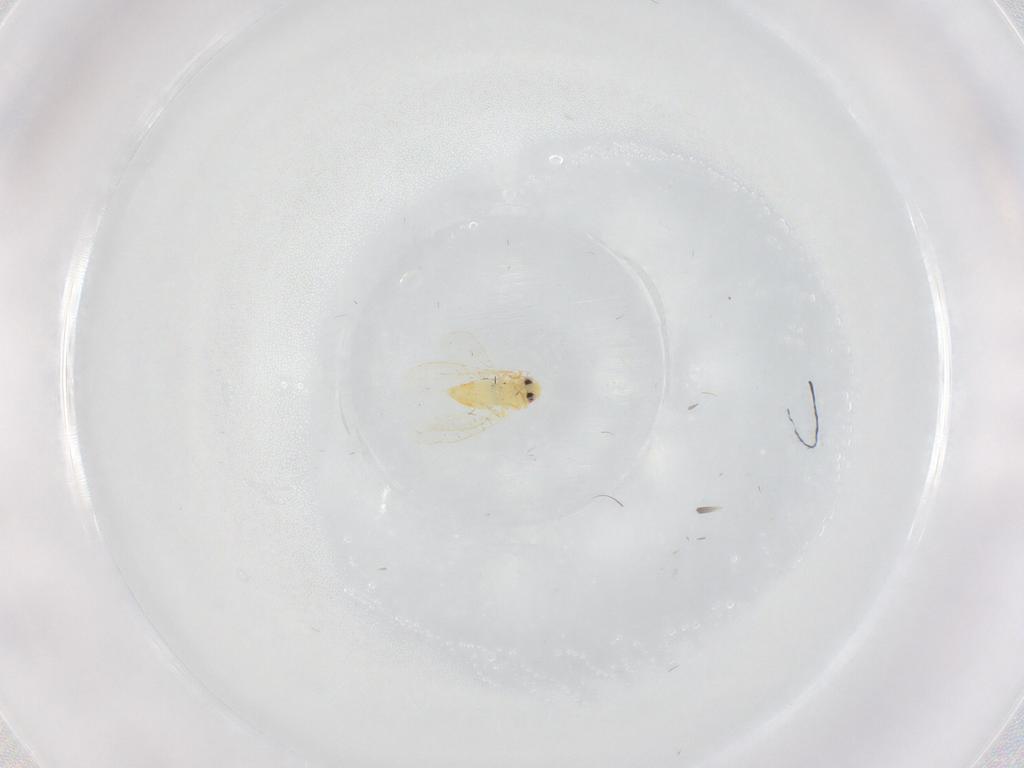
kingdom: Animalia
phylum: Arthropoda
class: Insecta
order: Hemiptera
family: Aleyrodidae
